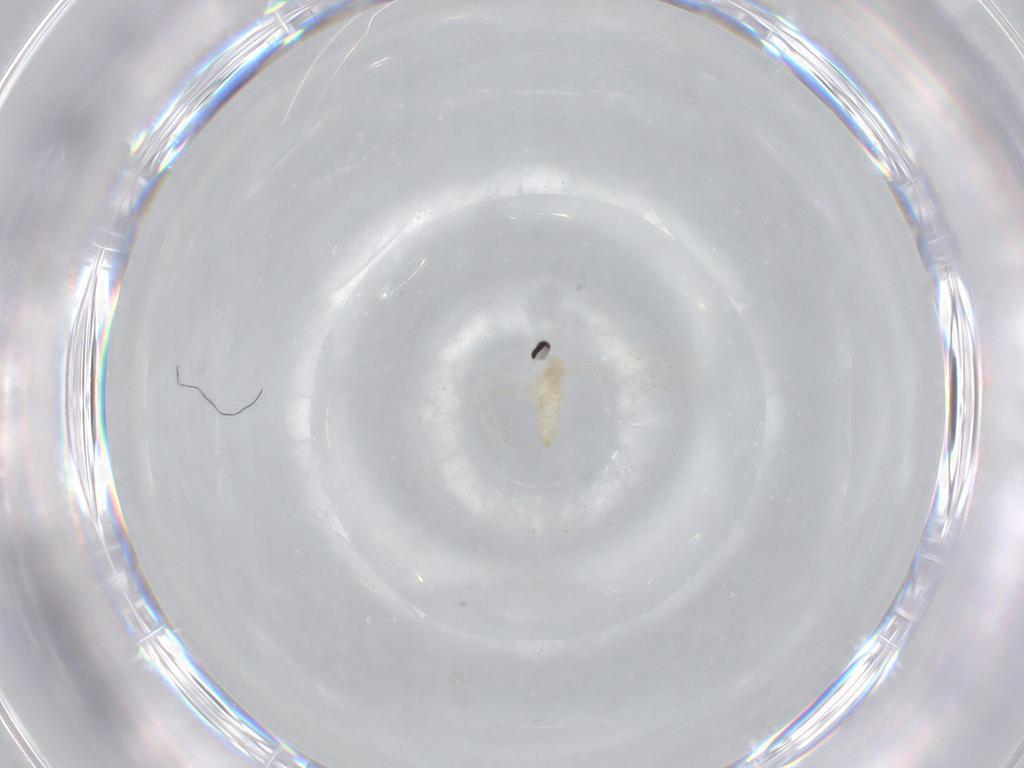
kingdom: Animalia
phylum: Arthropoda
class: Insecta
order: Diptera
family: Cecidomyiidae
